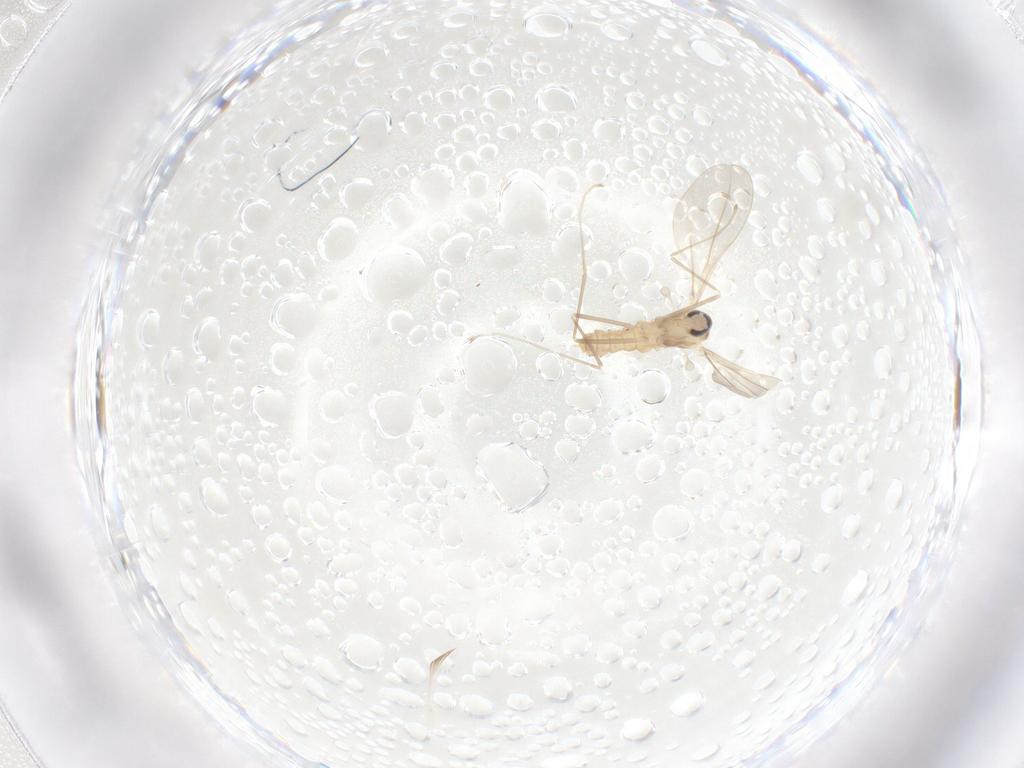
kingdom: Animalia
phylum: Arthropoda
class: Insecta
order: Diptera
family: Cecidomyiidae
